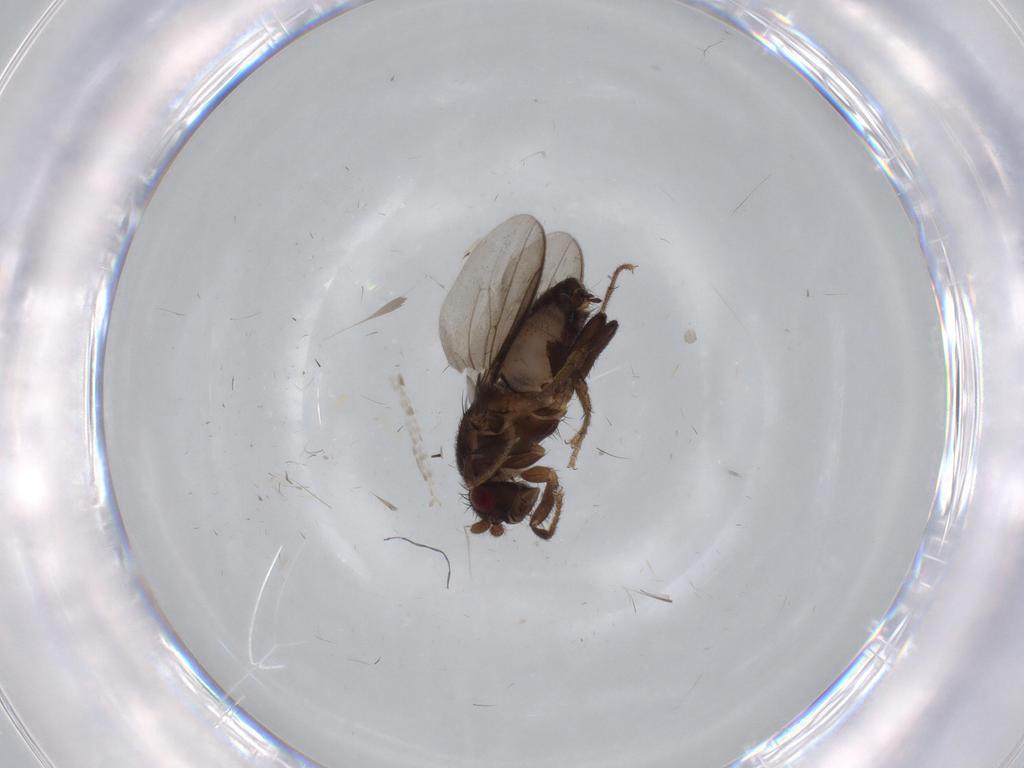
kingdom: Animalia
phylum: Arthropoda
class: Insecta
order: Diptera
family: Sphaeroceridae
